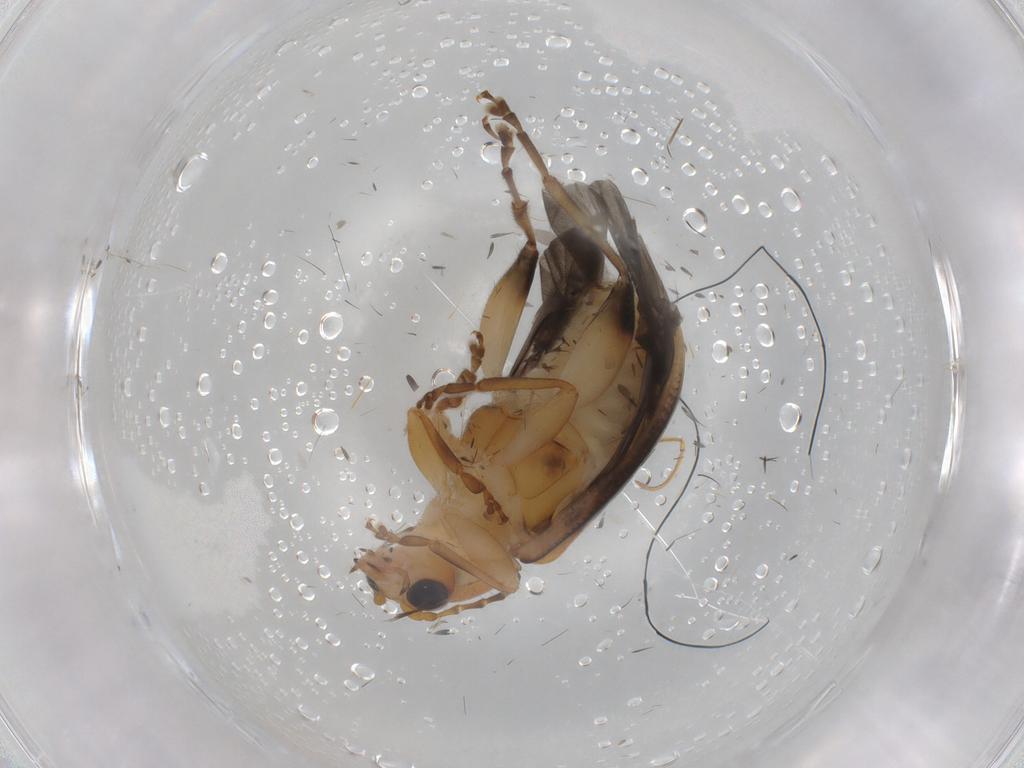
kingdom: Animalia
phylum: Arthropoda
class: Insecta
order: Coleoptera
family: Chrysomelidae
